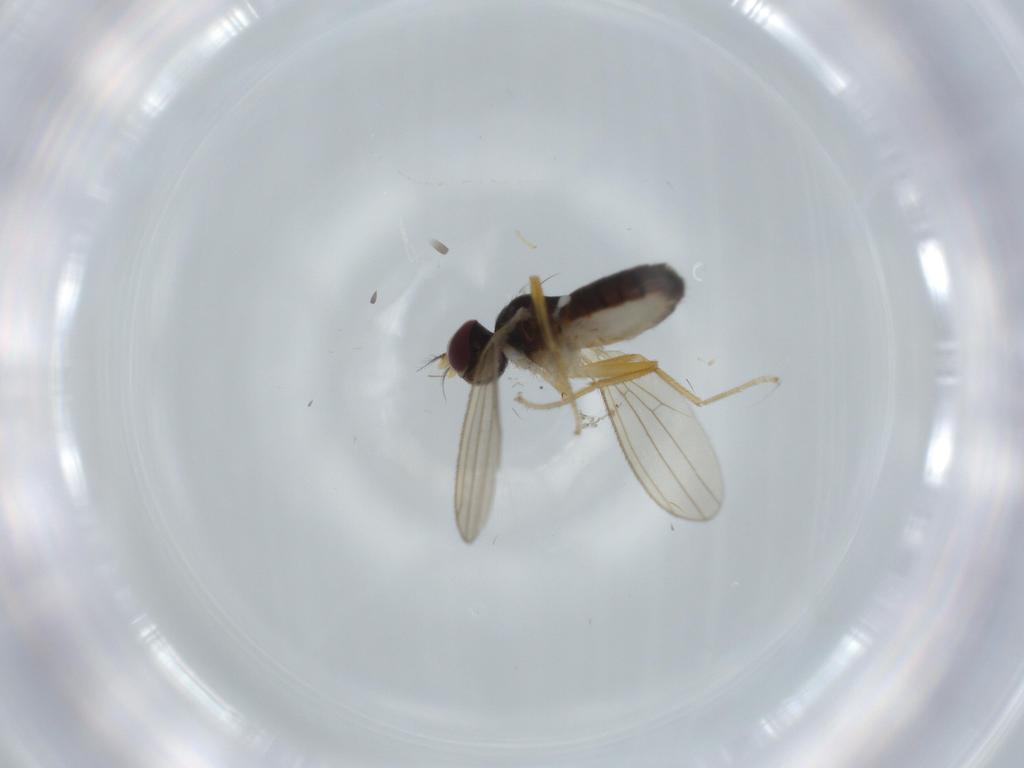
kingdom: Animalia
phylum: Arthropoda
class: Insecta
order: Diptera
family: Anthomyzidae
